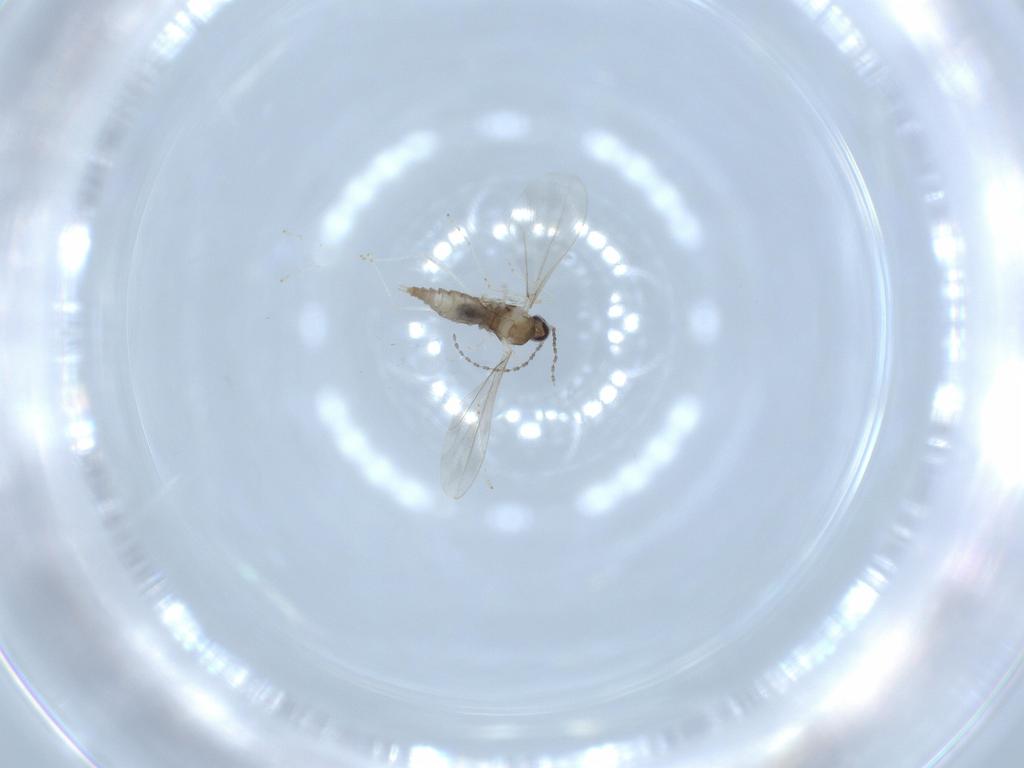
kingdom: Animalia
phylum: Arthropoda
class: Insecta
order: Diptera
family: Cecidomyiidae
